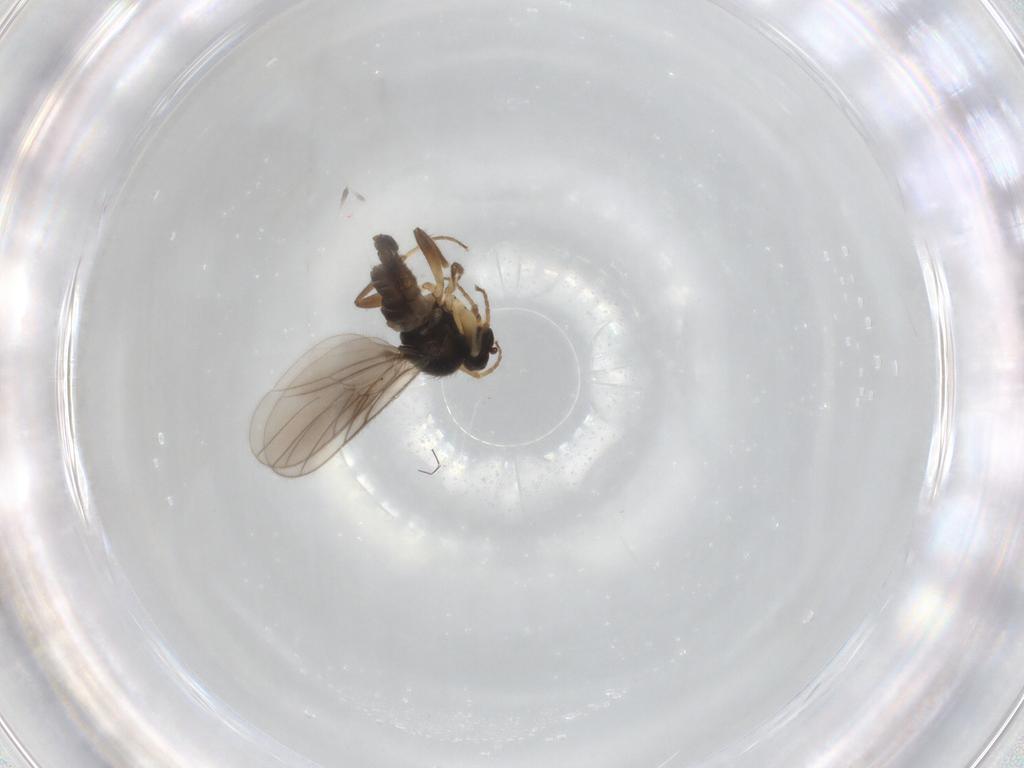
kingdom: Animalia
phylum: Arthropoda
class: Insecta
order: Diptera
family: Hybotidae
